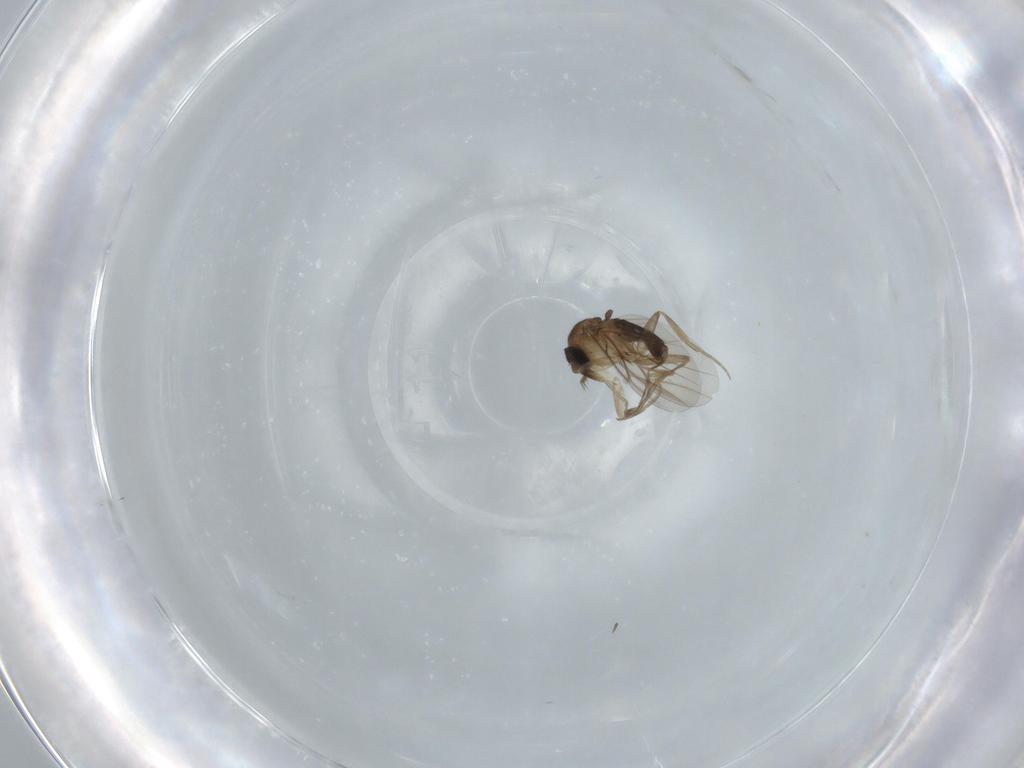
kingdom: Animalia
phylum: Arthropoda
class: Insecta
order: Diptera
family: Phoridae
